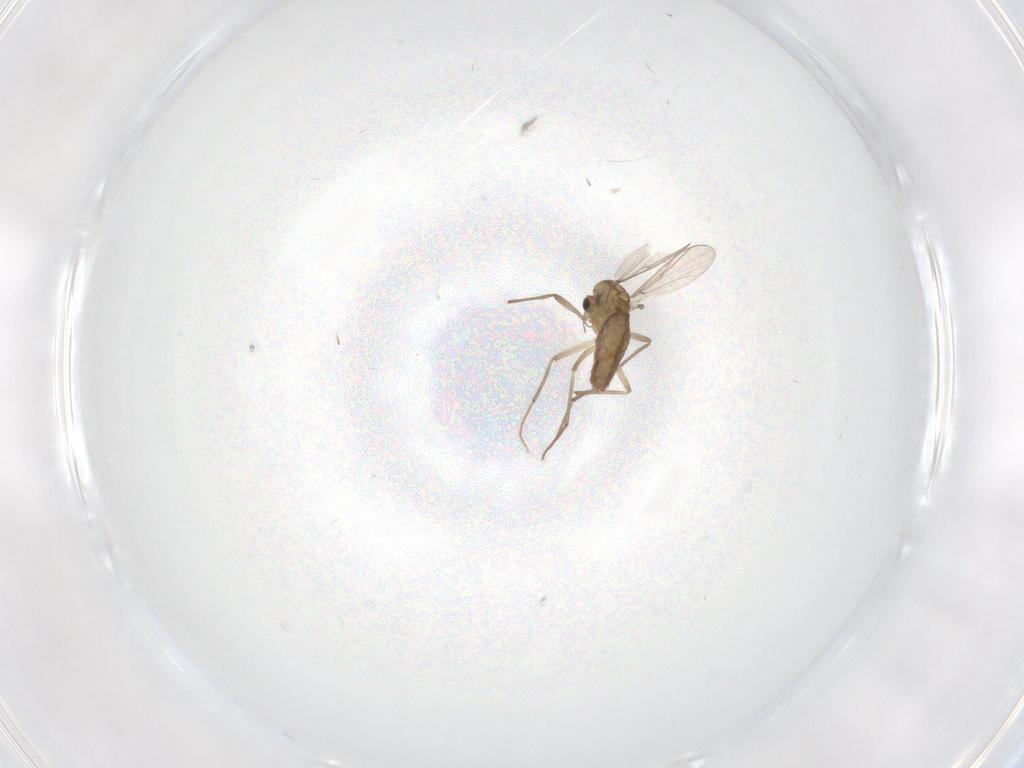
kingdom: Animalia
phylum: Arthropoda
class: Insecta
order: Diptera
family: Chironomidae
